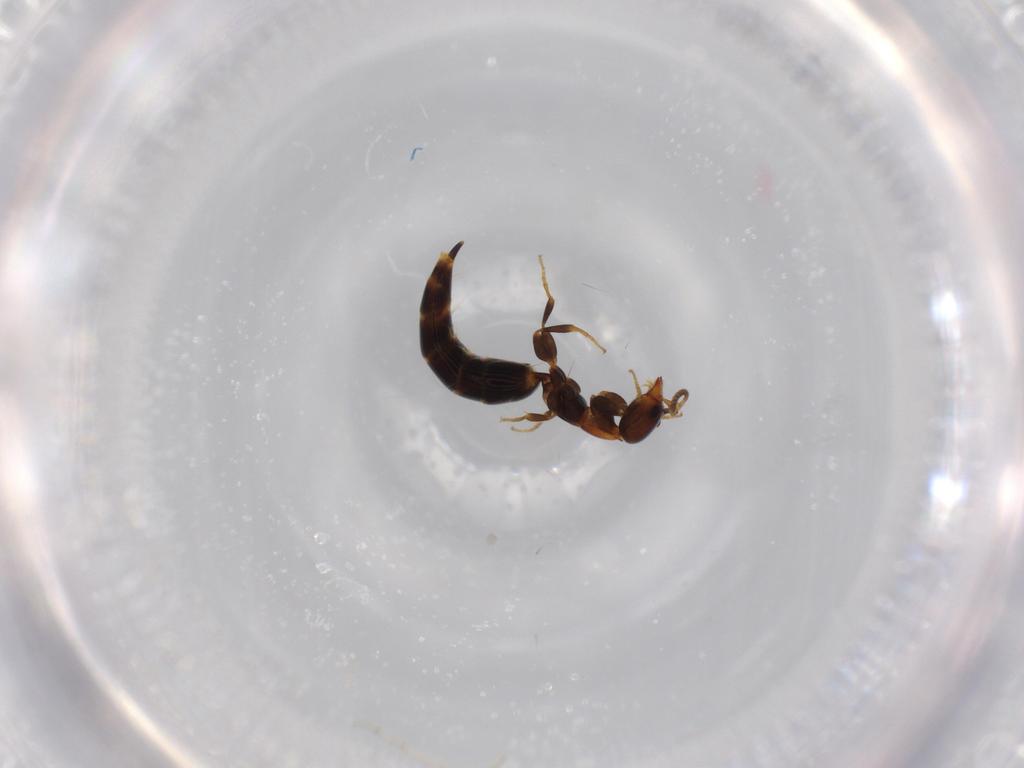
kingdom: Animalia
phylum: Arthropoda
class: Insecta
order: Hymenoptera
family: Bethylidae
